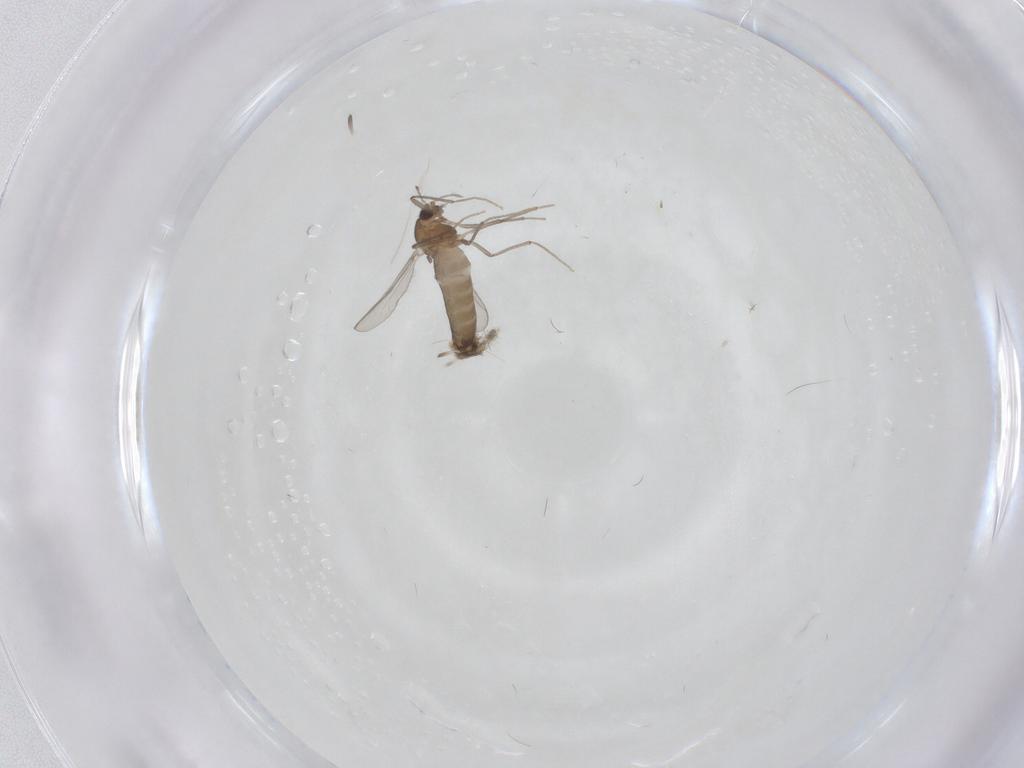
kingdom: Animalia
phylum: Arthropoda
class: Insecta
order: Diptera
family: Chironomidae
